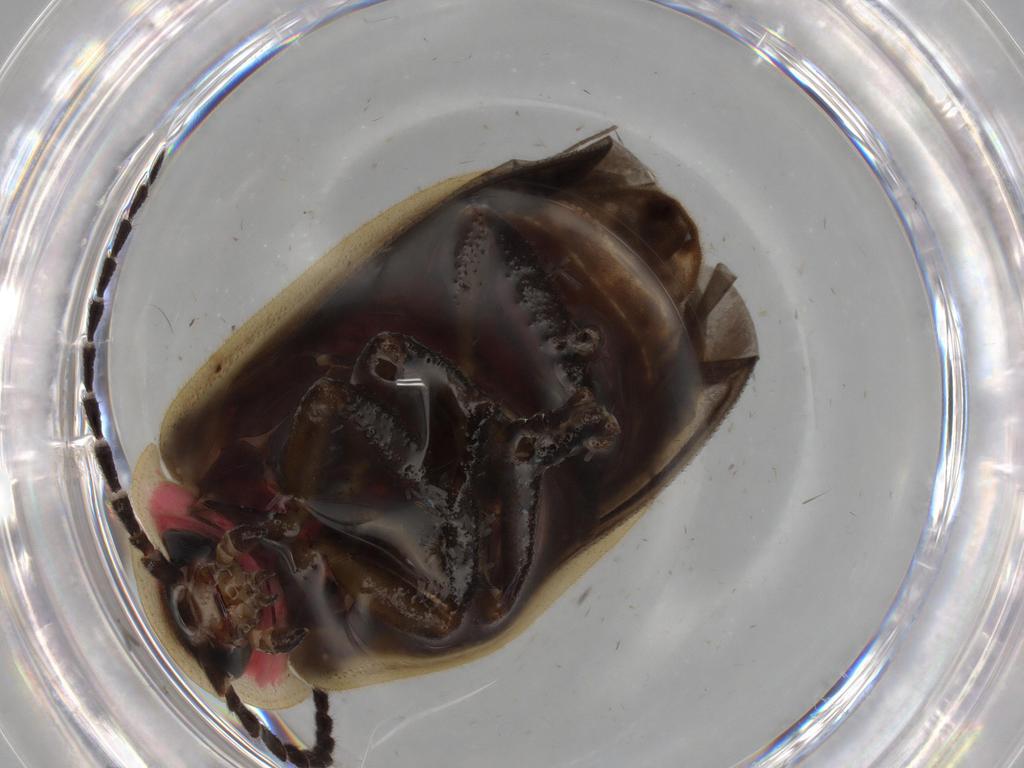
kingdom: Animalia
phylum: Arthropoda
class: Insecta
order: Coleoptera
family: Lampyridae
